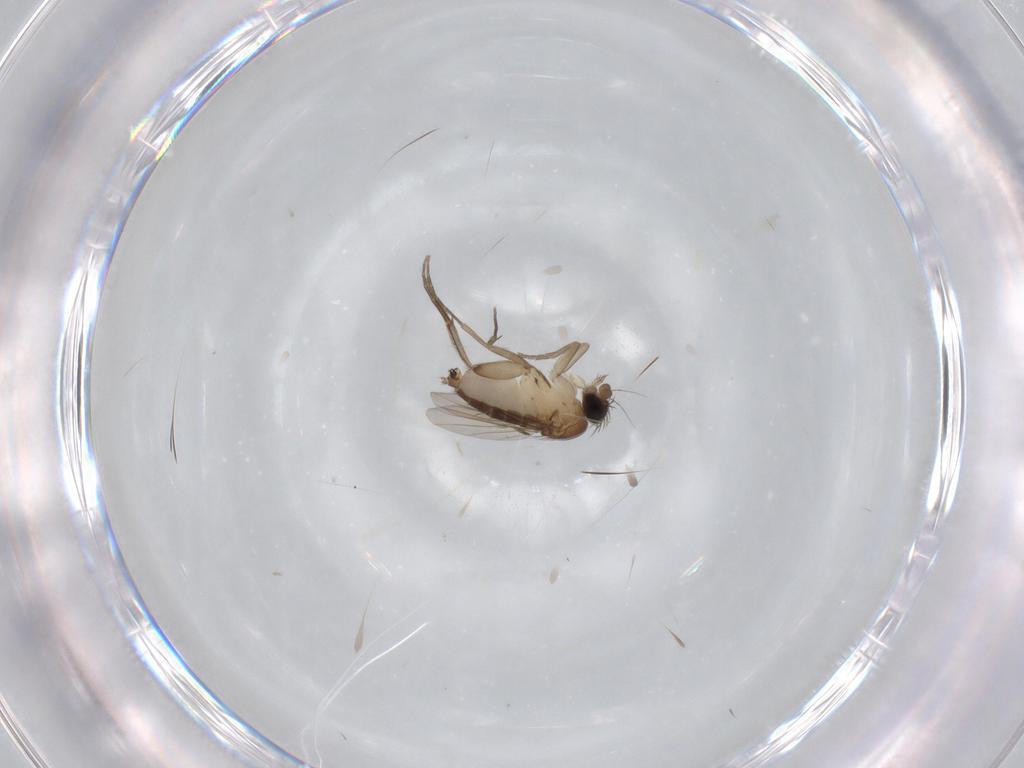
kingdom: Animalia
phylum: Arthropoda
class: Insecta
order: Diptera
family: Phoridae
